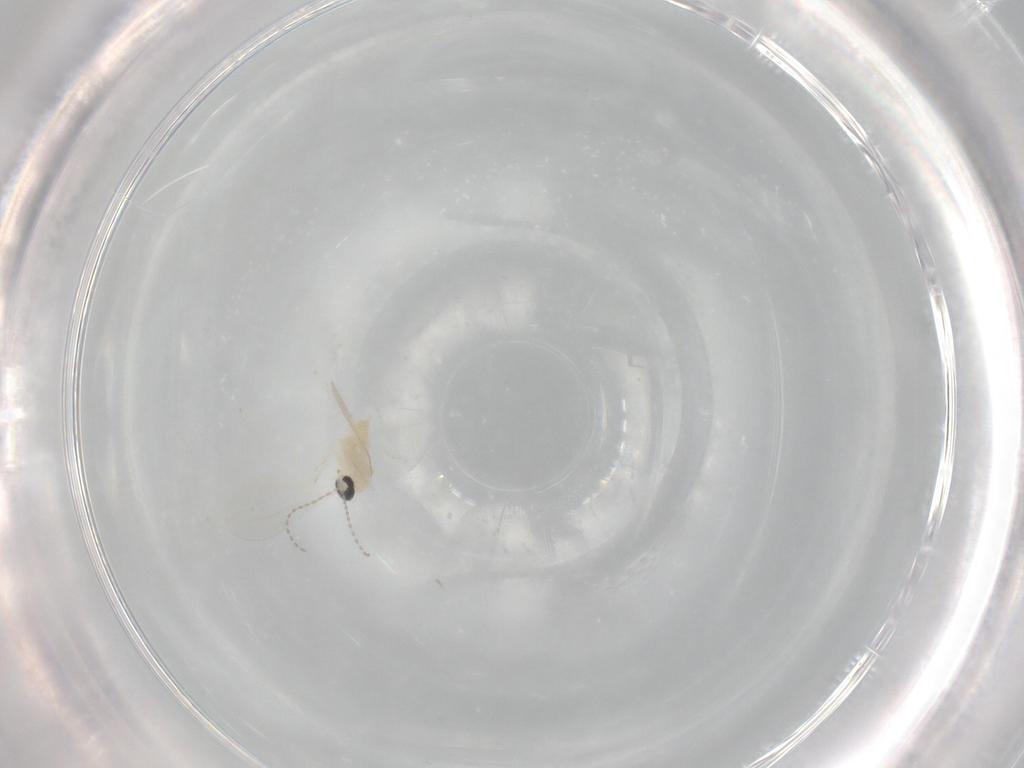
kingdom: Animalia
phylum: Arthropoda
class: Insecta
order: Diptera
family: Cecidomyiidae
